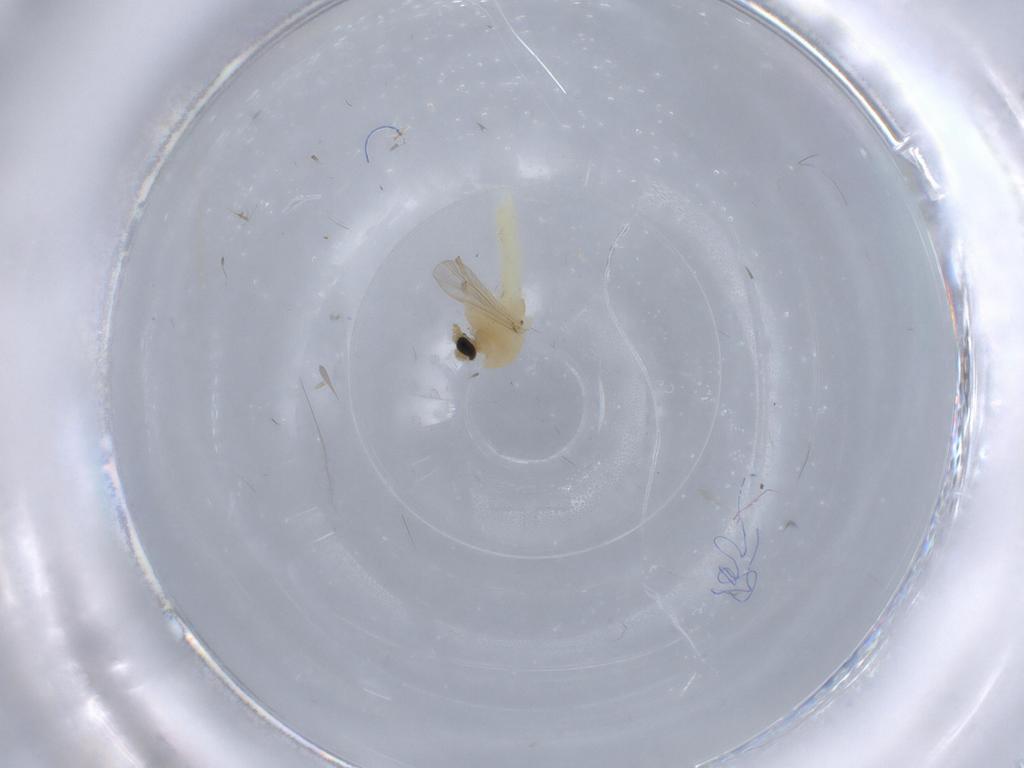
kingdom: Animalia
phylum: Arthropoda
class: Insecta
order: Diptera
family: Chironomidae
